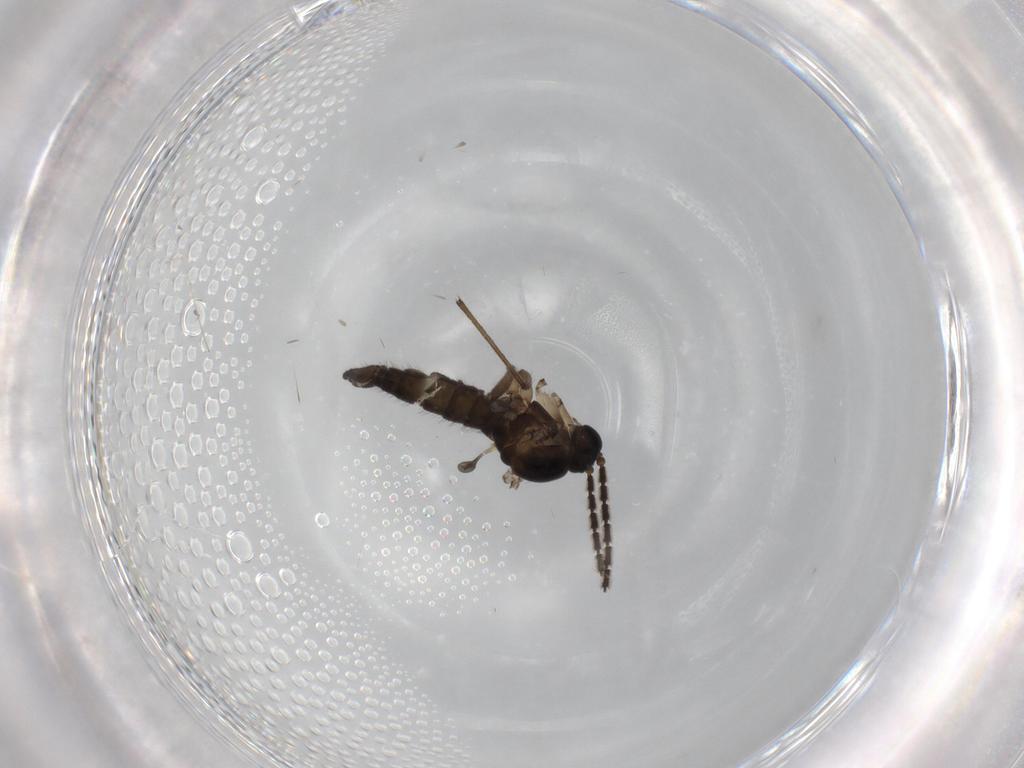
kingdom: Animalia
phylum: Arthropoda
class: Insecta
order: Diptera
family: Sciaridae
